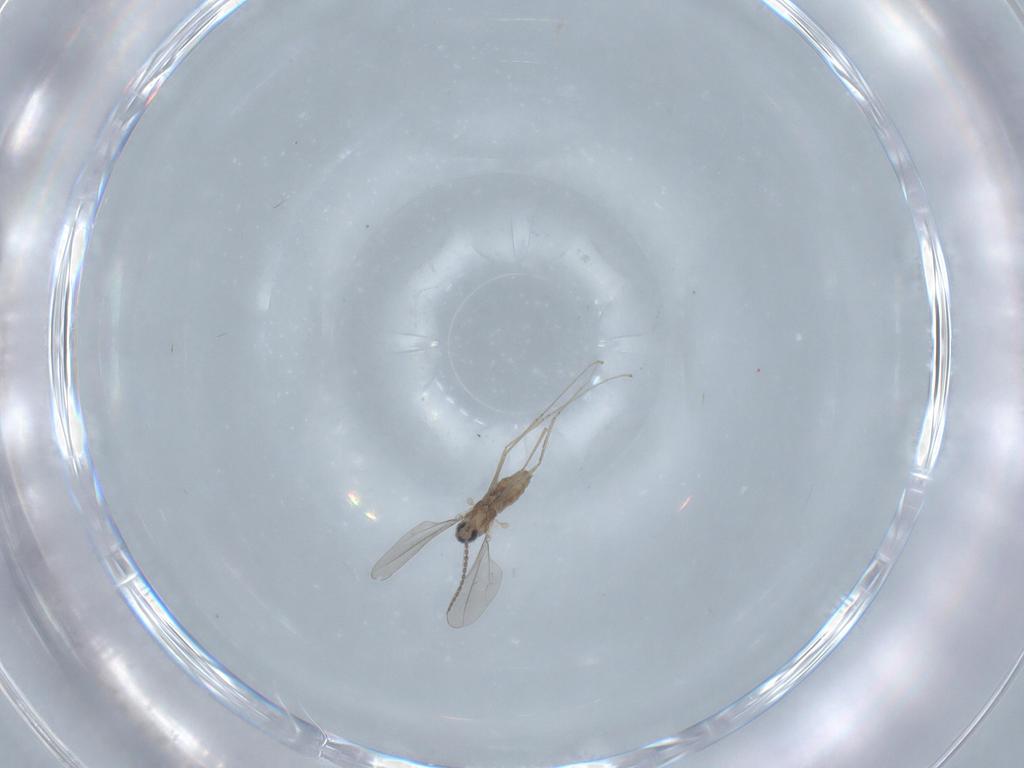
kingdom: Animalia
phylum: Arthropoda
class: Insecta
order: Diptera
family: Cecidomyiidae
